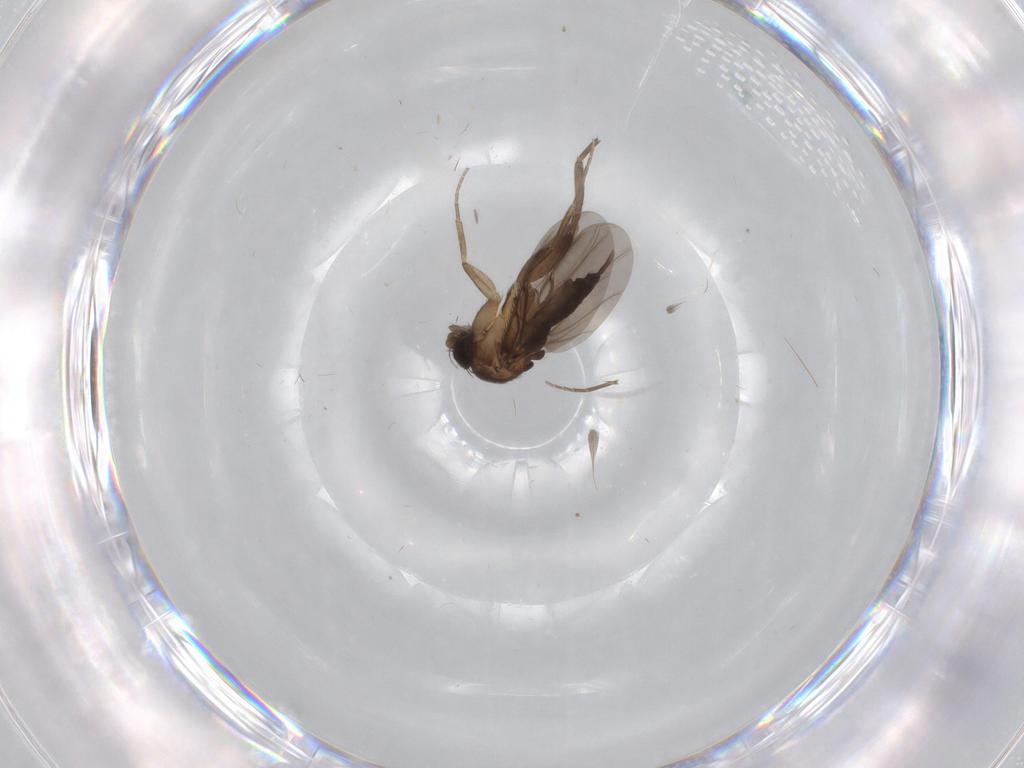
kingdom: Animalia
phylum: Arthropoda
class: Insecta
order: Diptera
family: Phoridae
